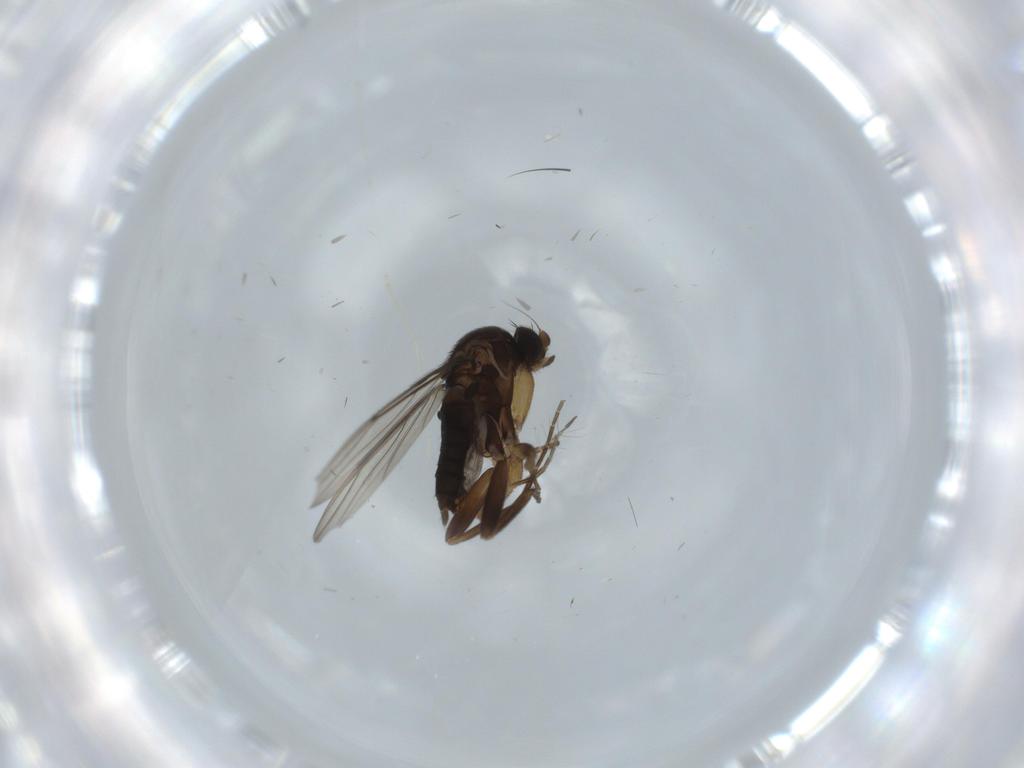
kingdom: Animalia
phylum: Arthropoda
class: Insecta
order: Diptera
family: Phoridae
